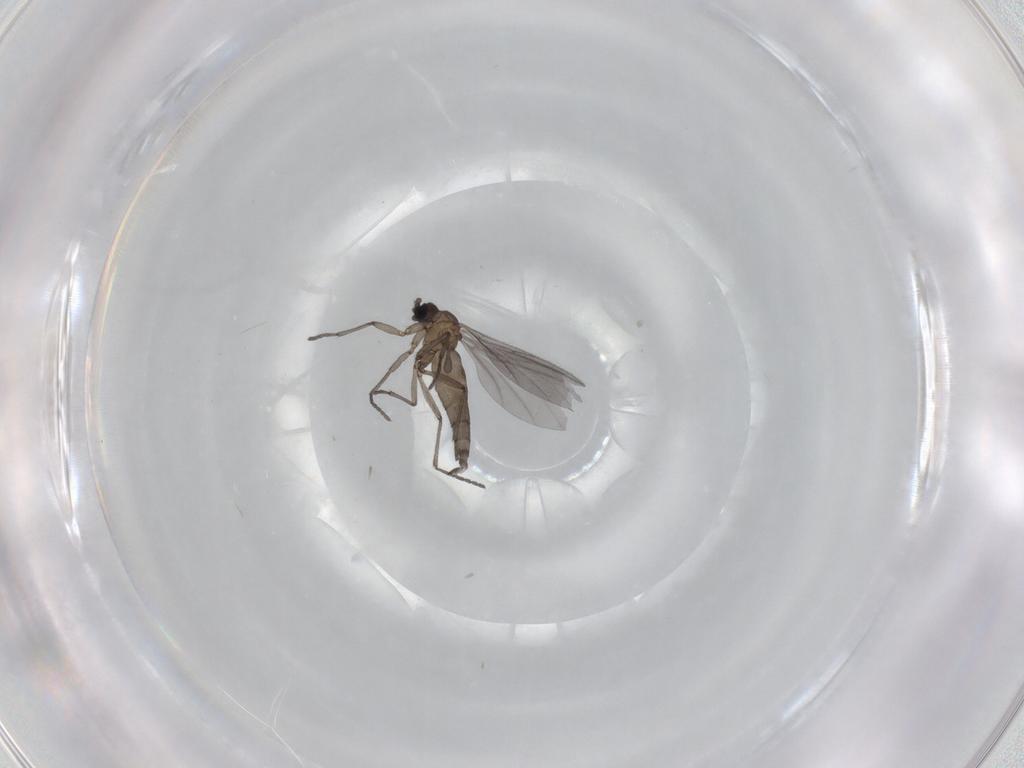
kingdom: Animalia
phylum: Arthropoda
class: Insecta
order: Diptera
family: Sciaridae
